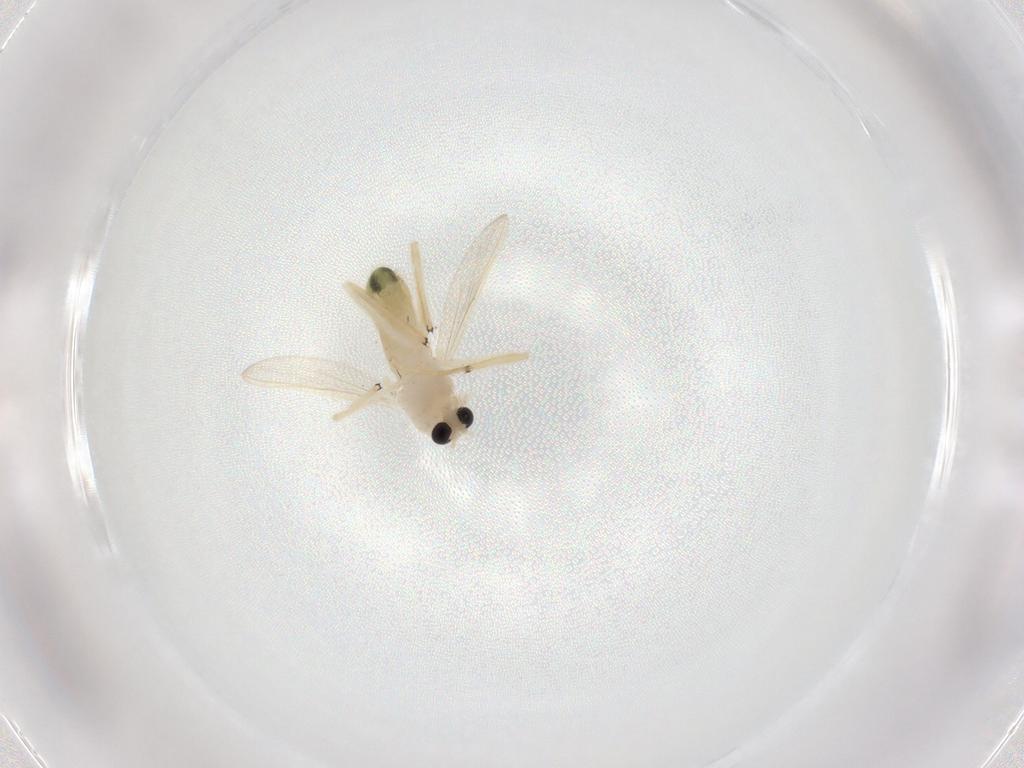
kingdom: Animalia
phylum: Arthropoda
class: Insecta
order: Diptera
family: Chironomidae
